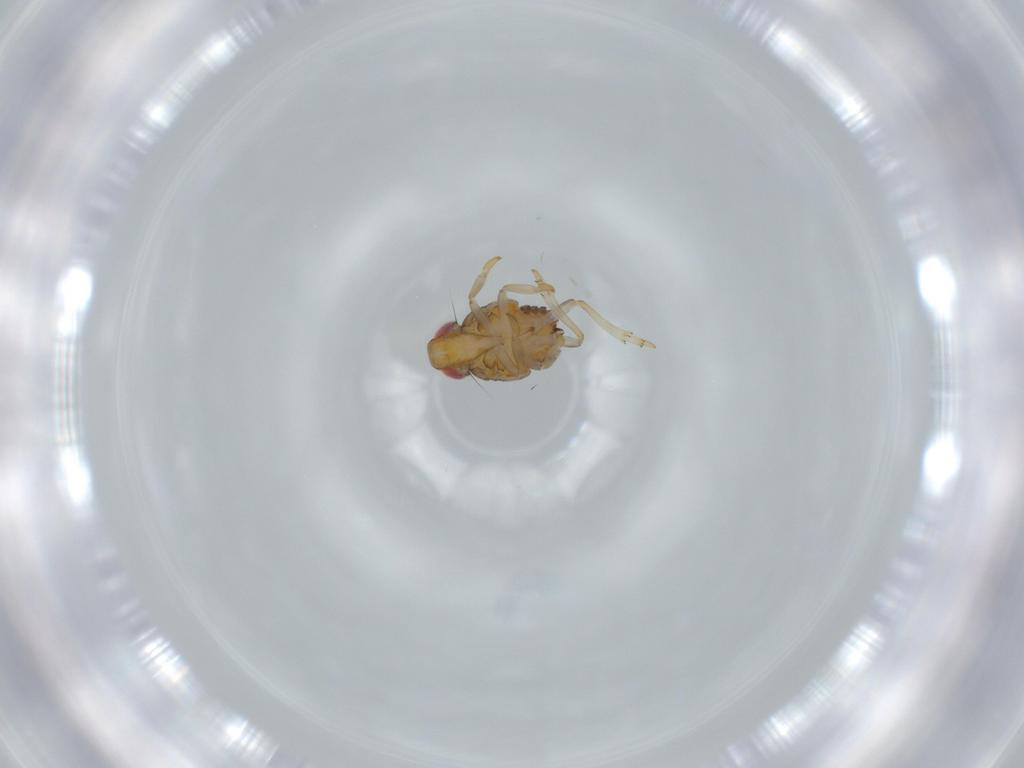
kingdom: Animalia
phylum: Arthropoda
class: Insecta
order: Hemiptera
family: Issidae
